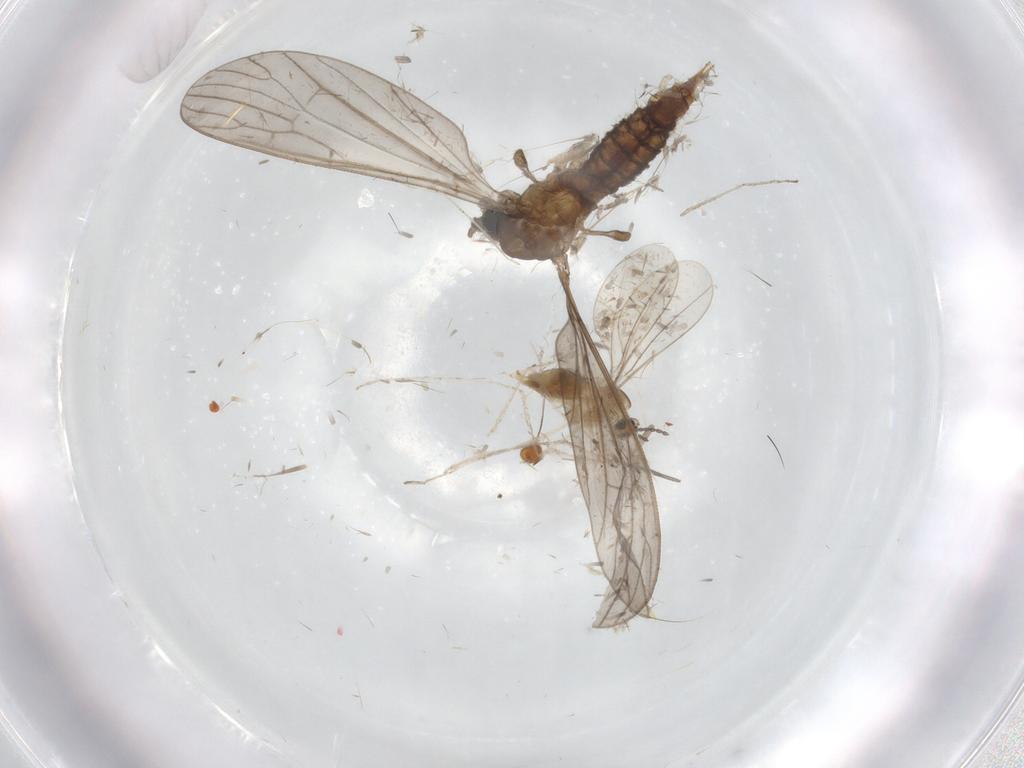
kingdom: Animalia
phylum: Arthropoda
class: Insecta
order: Diptera
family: Limoniidae
